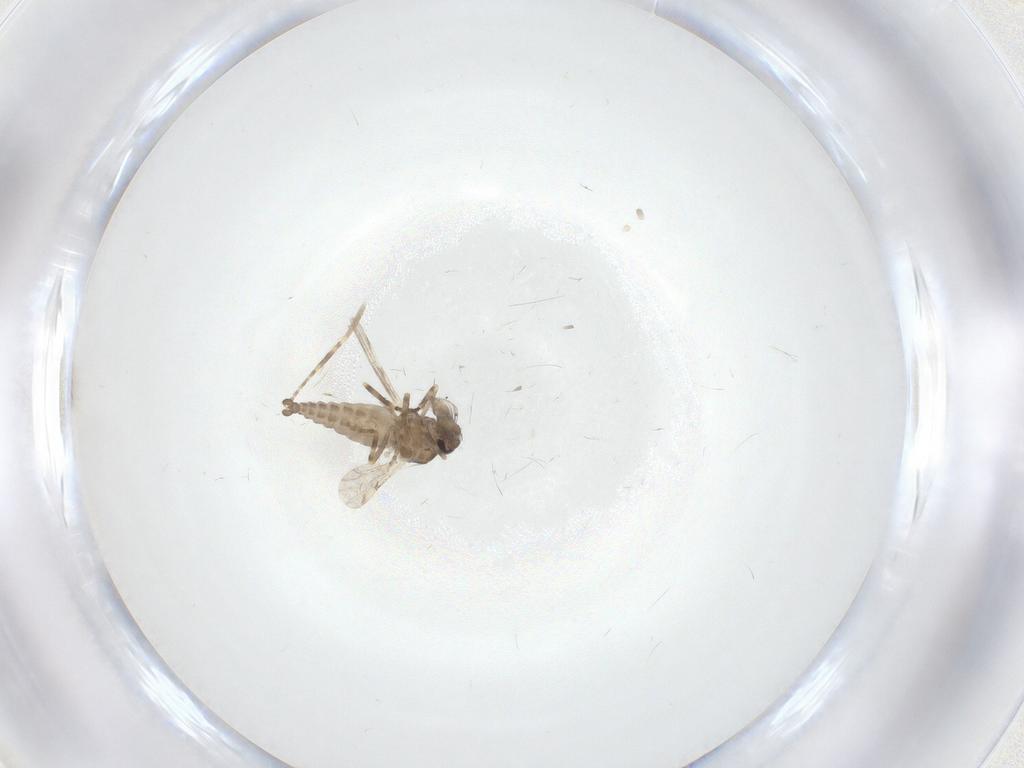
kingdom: Animalia
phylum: Arthropoda
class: Insecta
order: Diptera
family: Ceratopogonidae
